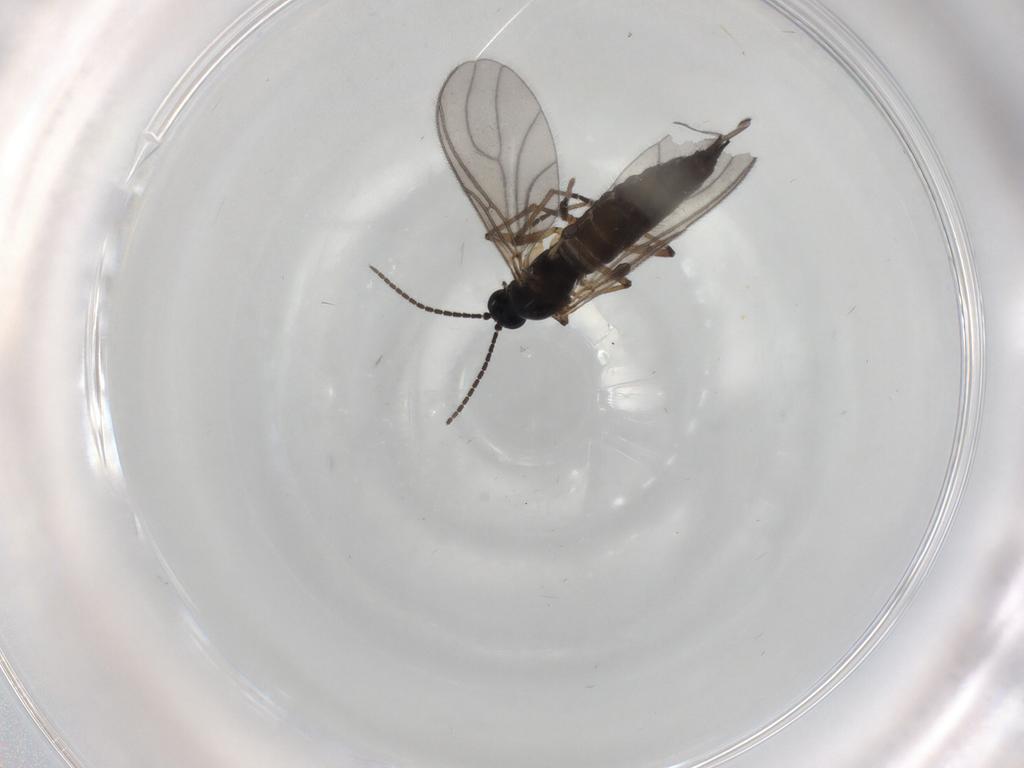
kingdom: Animalia
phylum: Arthropoda
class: Insecta
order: Diptera
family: Sciaridae
